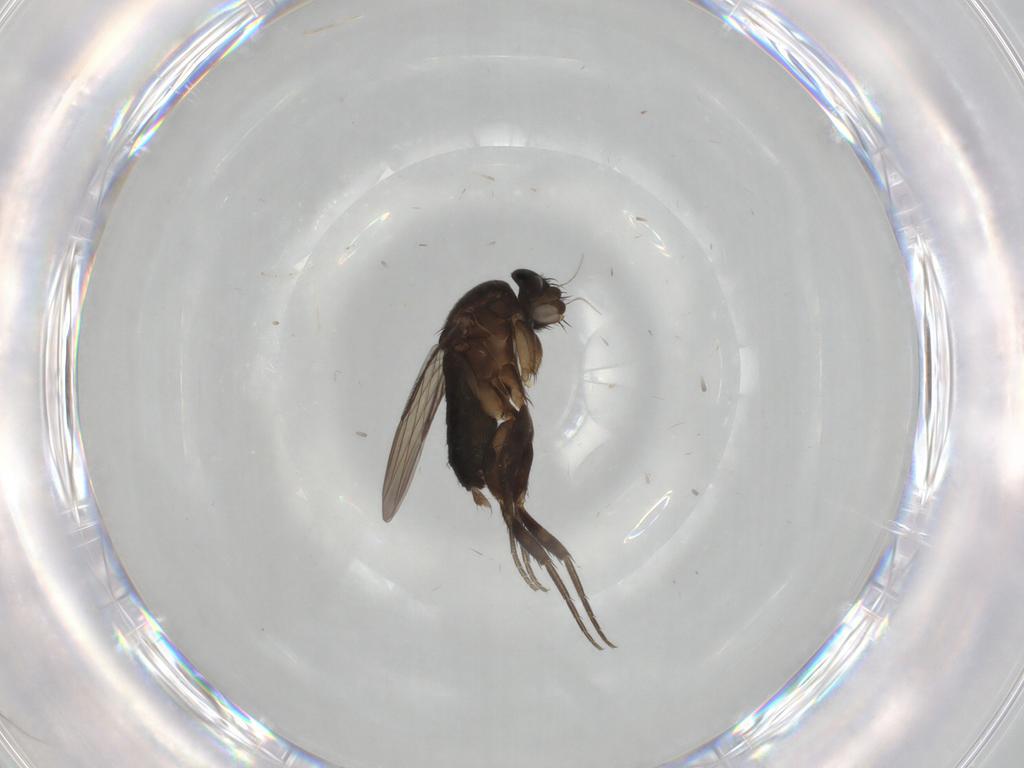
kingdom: Animalia
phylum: Arthropoda
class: Insecta
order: Diptera
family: Phoridae
